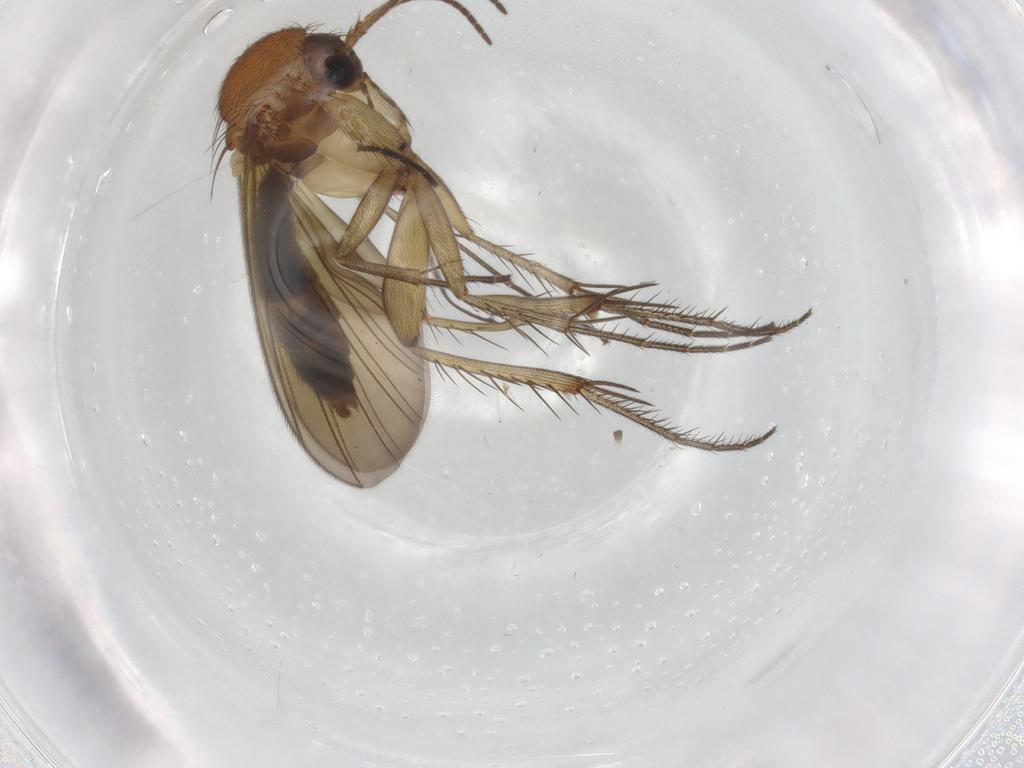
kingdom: Animalia
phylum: Arthropoda
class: Insecta
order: Diptera
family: Mycetophilidae
